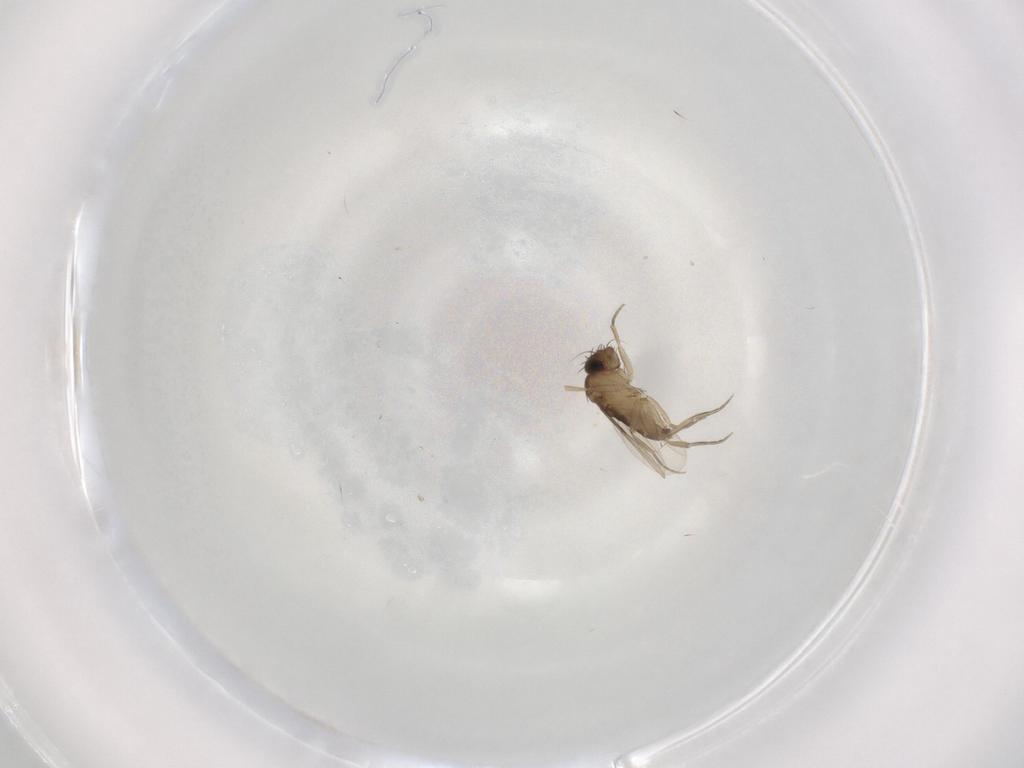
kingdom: Animalia
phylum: Arthropoda
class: Insecta
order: Diptera
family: Phoridae
